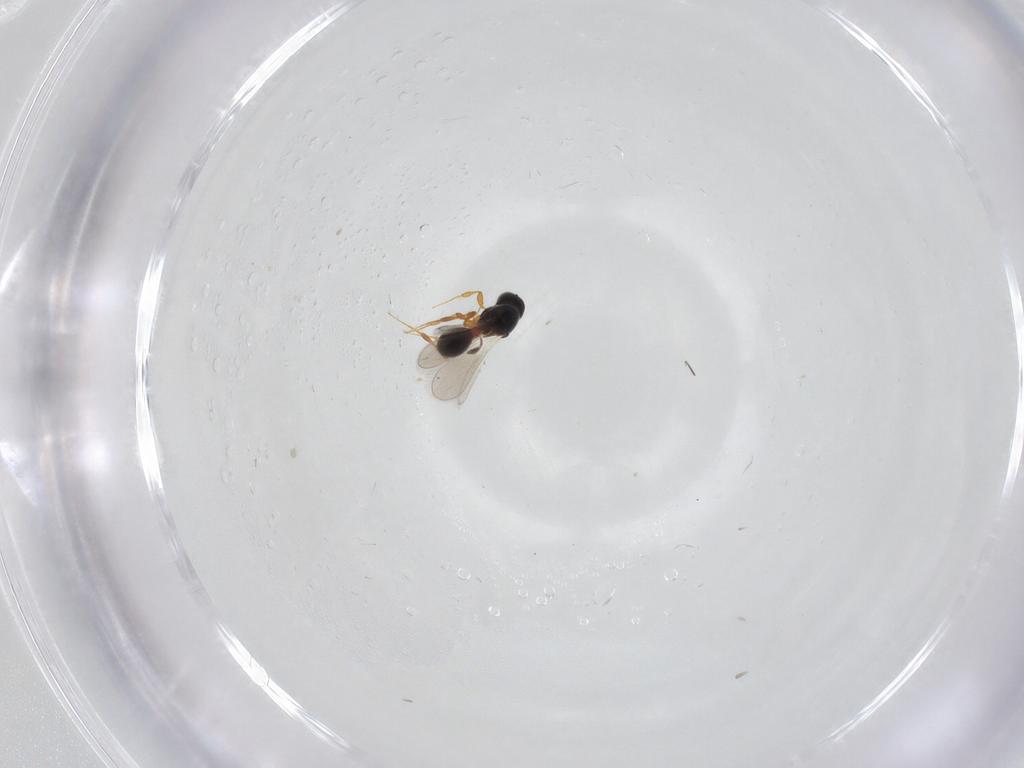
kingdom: Animalia
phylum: Arthropoda
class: Insecta
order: Hymenoptera
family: Platygastridae
